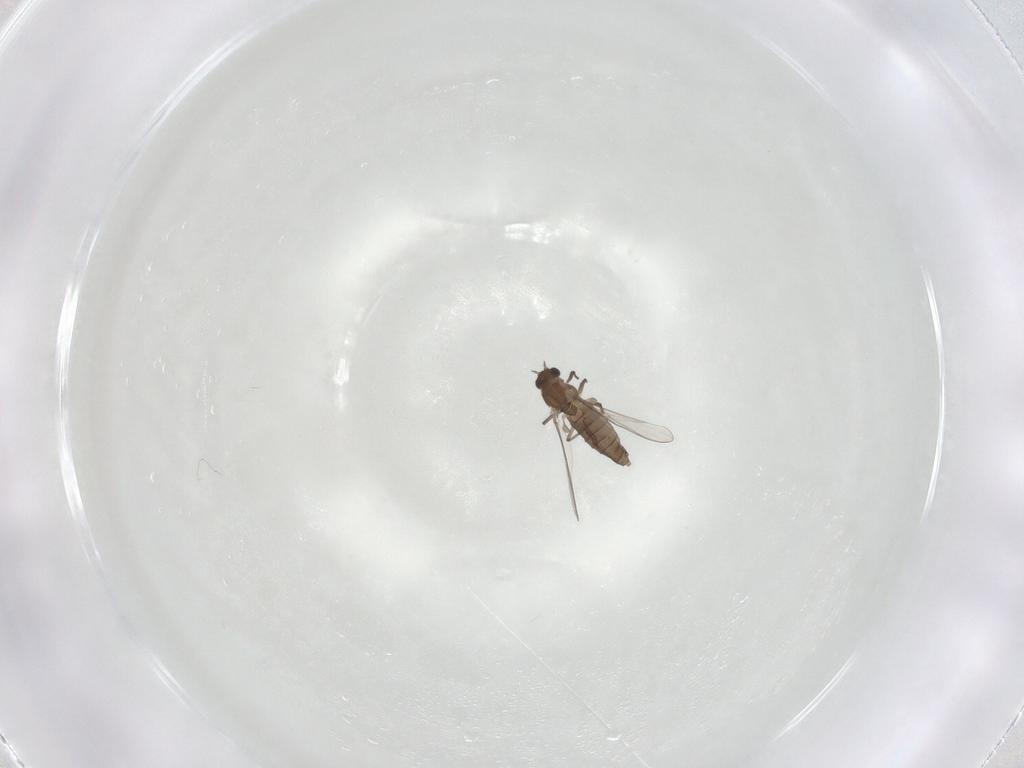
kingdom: Animalia
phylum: Arthropoda
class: Insecta
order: Diptera
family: Chironomidae
